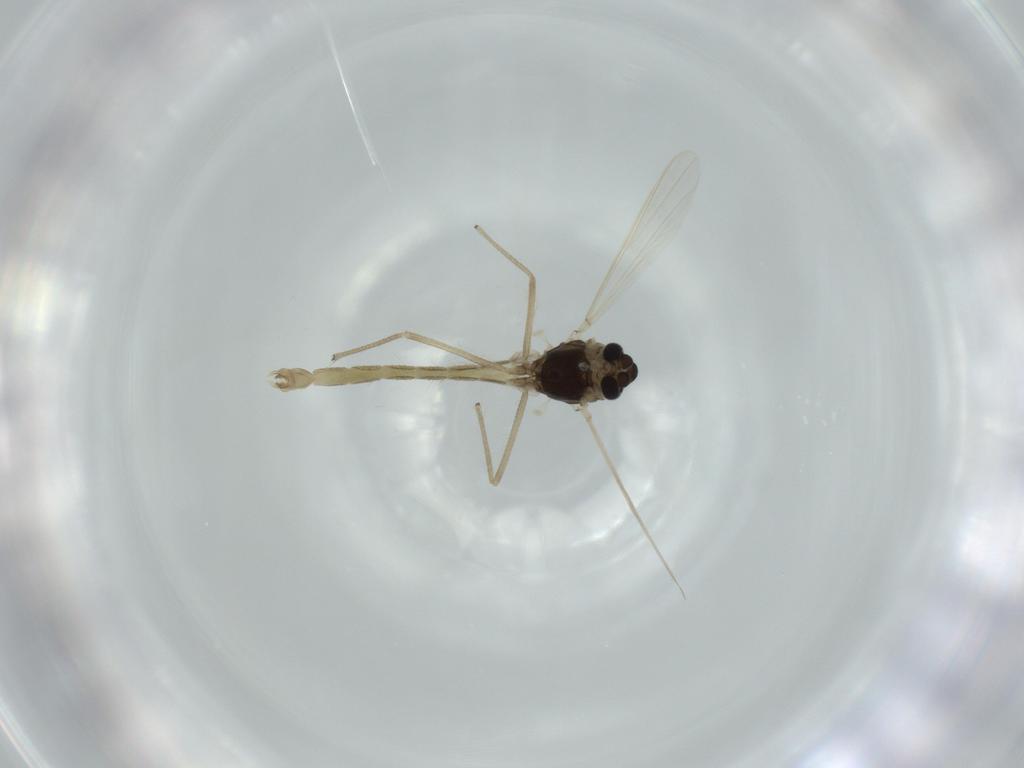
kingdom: Animalia
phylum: Arthropoda
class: Insecta
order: Diptera
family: Chironomidae
